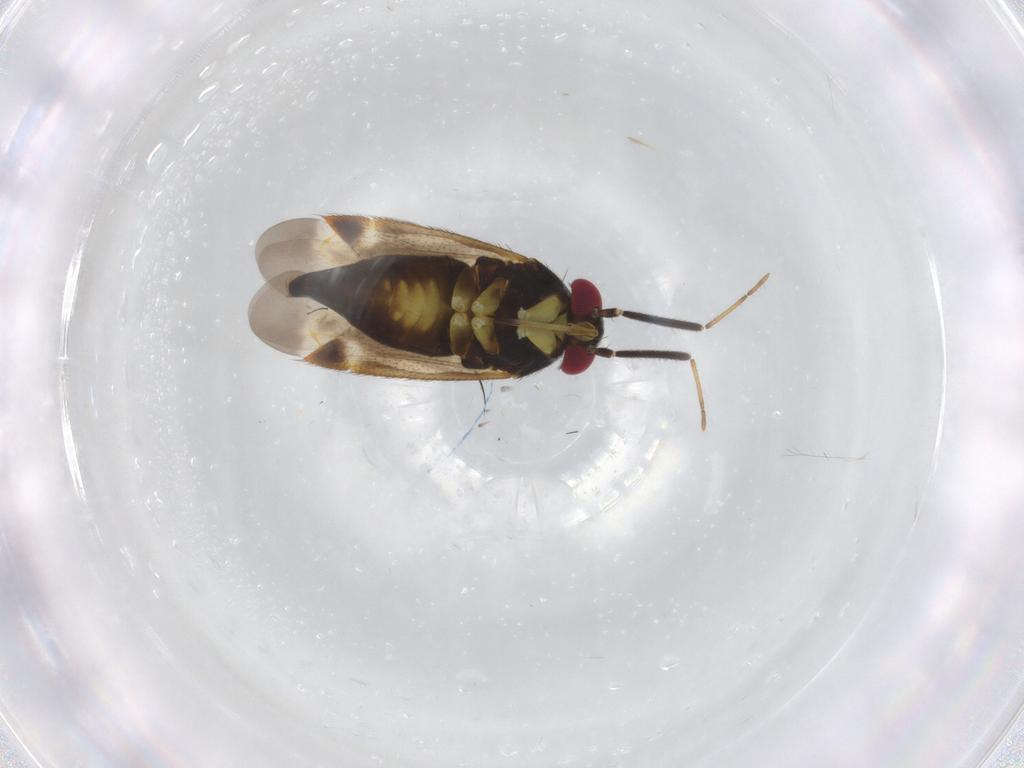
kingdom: Animalia
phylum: Arthropoda
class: Insecta
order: Hemiptera
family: Miridae
